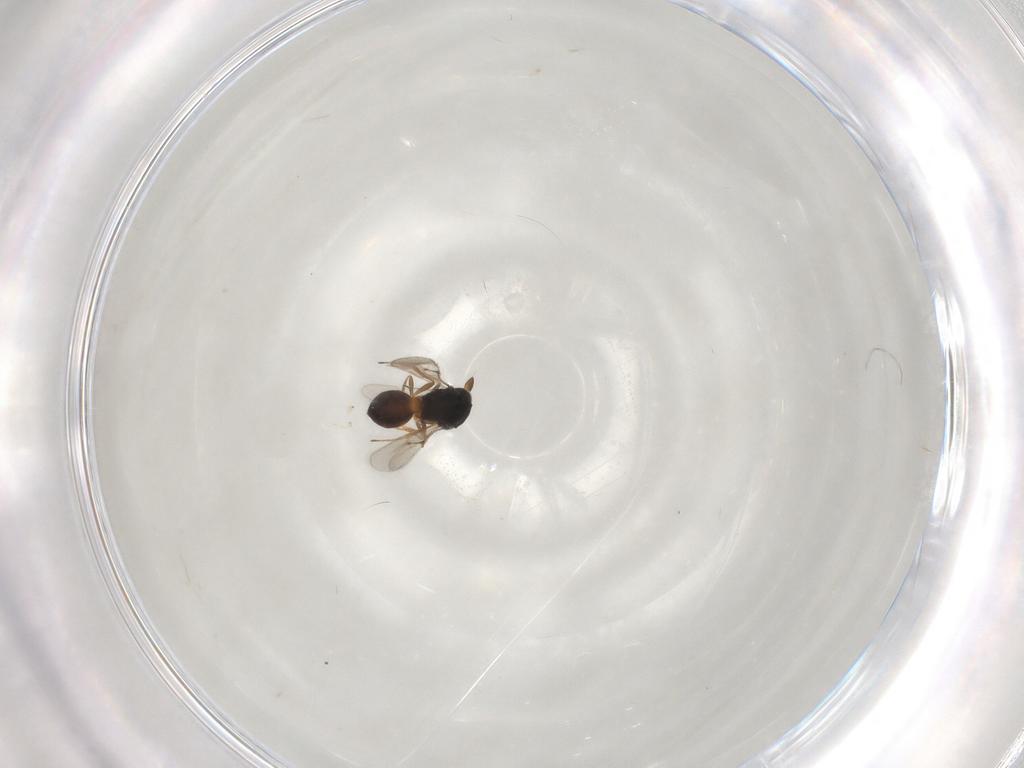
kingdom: Animalia
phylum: Arthropoda
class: Insecta
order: Hymenoptera
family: Scelionidae
